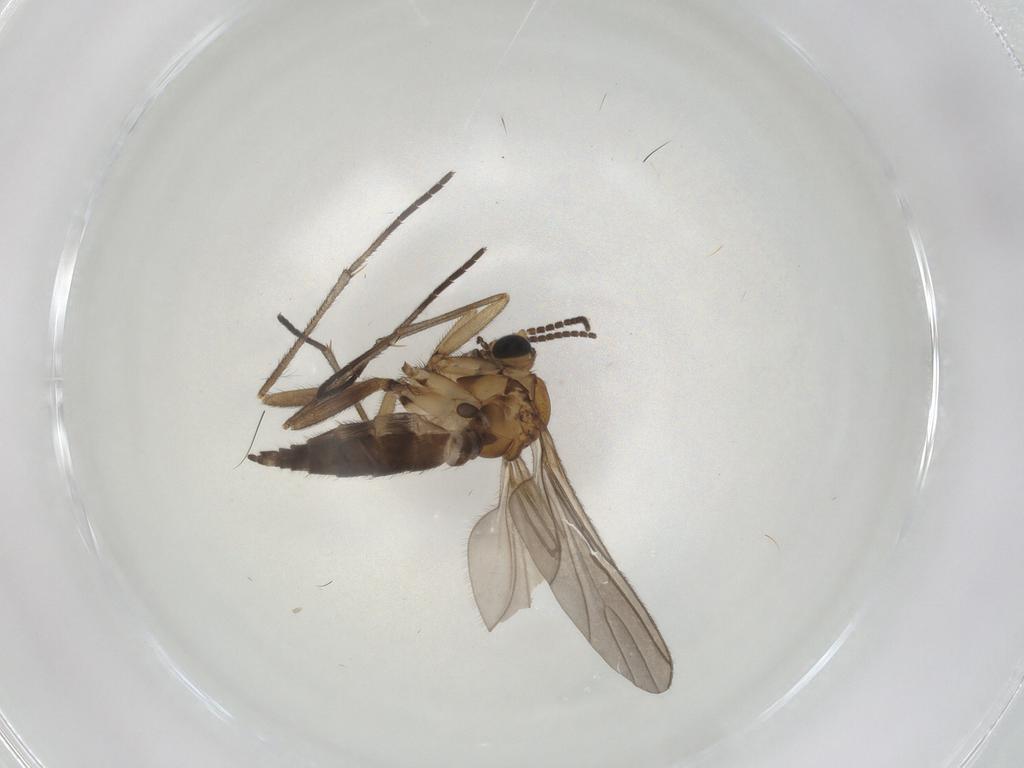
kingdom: Animalia
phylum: Arthropoda
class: Insecta
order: Diptera
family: Sciaridae
